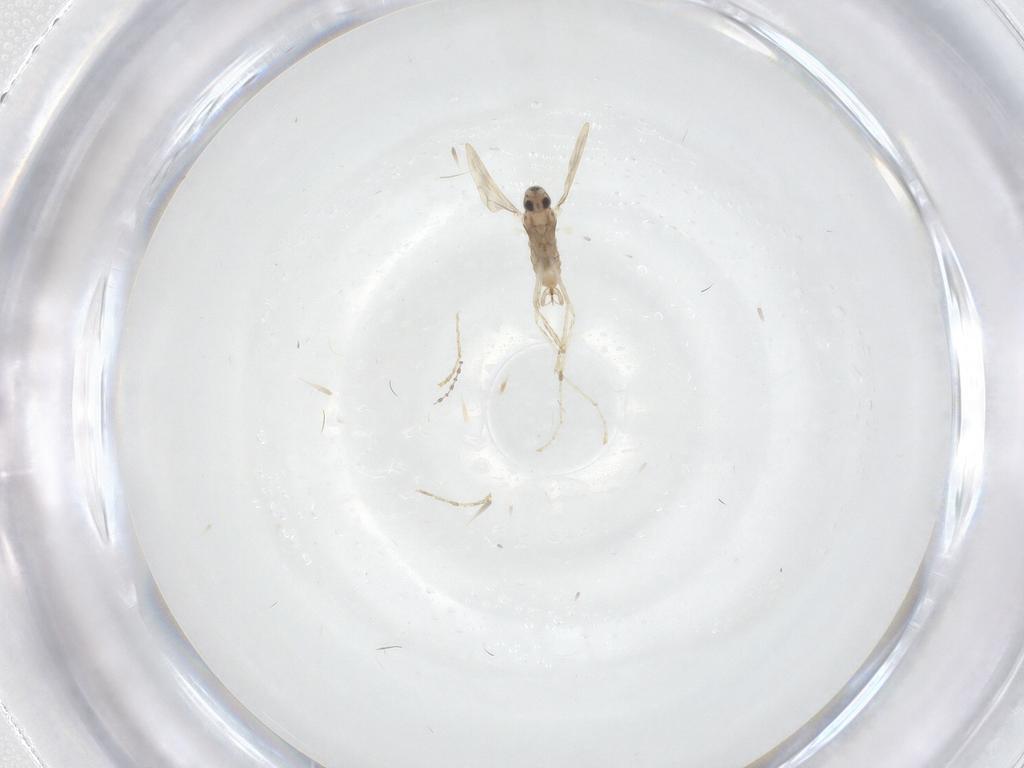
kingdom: Animalia
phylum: Arthropoda
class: Insecta
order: Diptera
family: Cecidomyiidae
